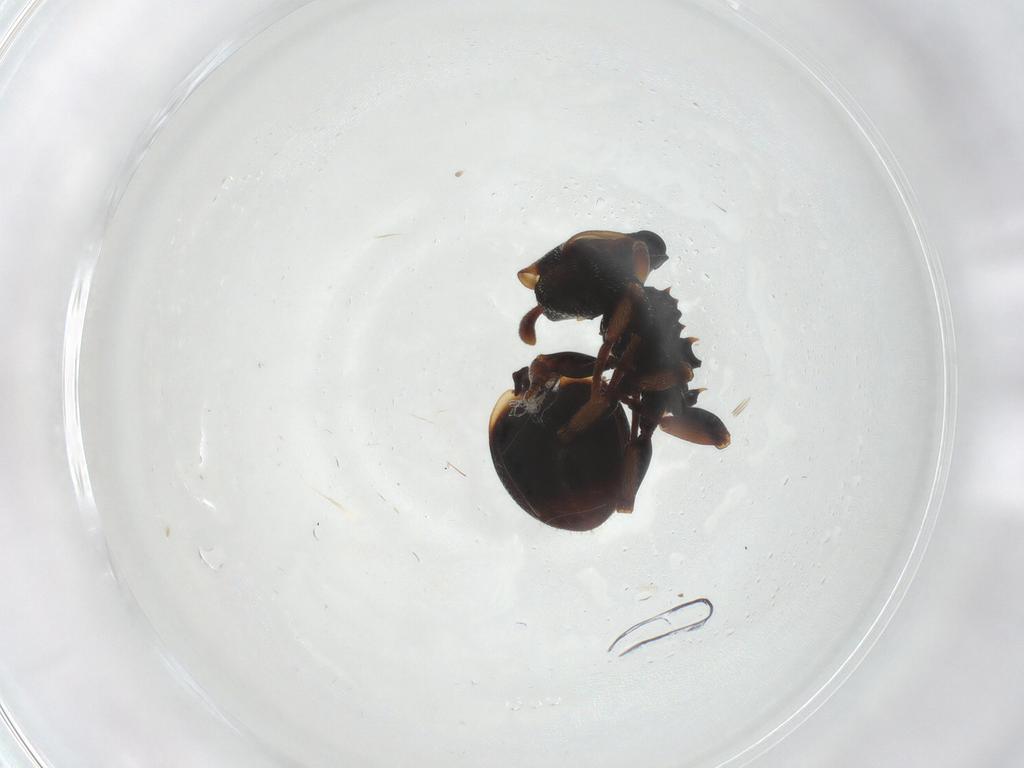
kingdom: Animalia
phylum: Arthropoda
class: Insecta
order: Hymenoptera
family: Formicidae
